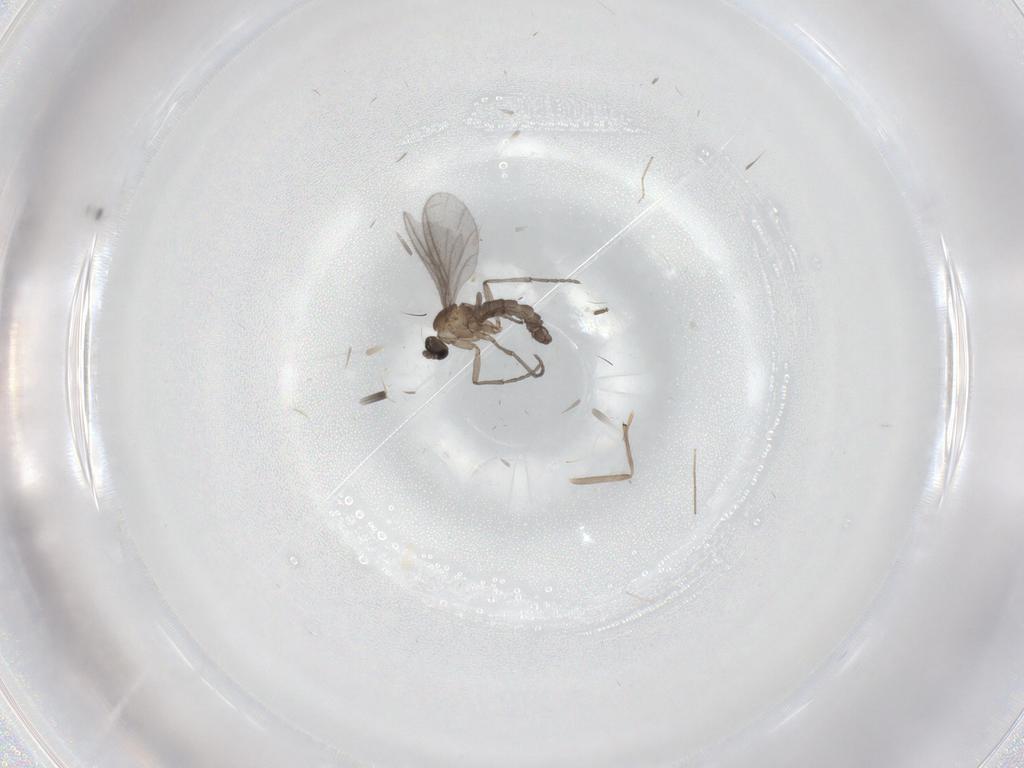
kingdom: Animalia
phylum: Arthropoda
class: Insecta
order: Diptera
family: Sciaridae
